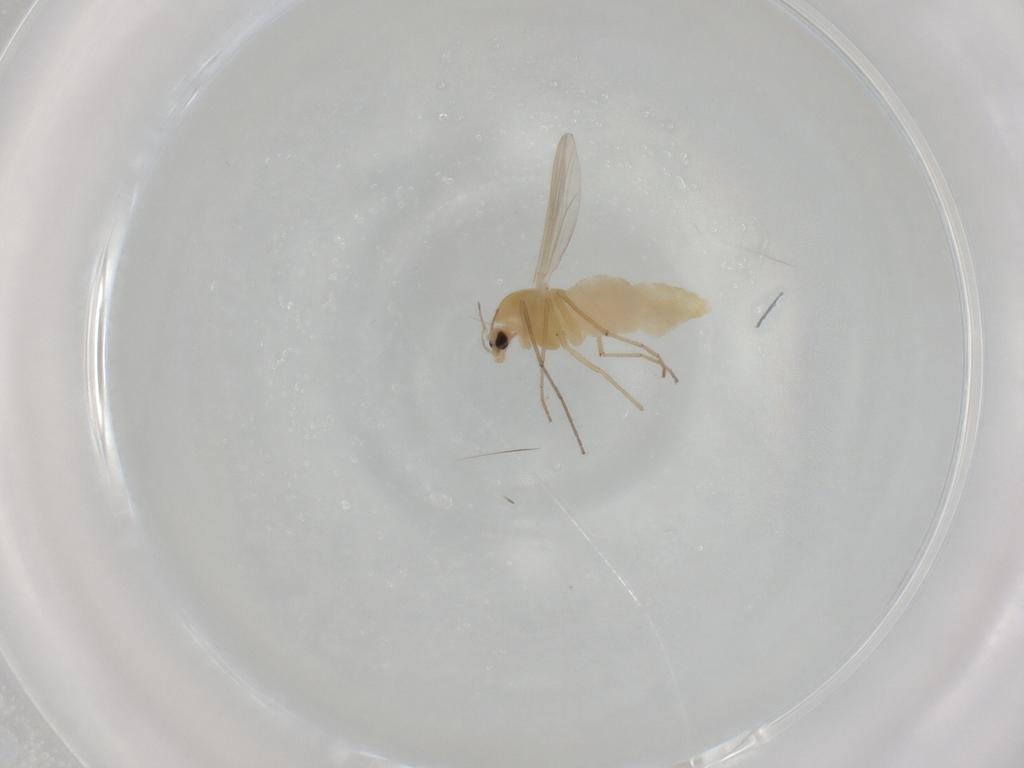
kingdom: Animalia
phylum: Arthropoda
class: Insecta
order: Diptera
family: Chironomidae
